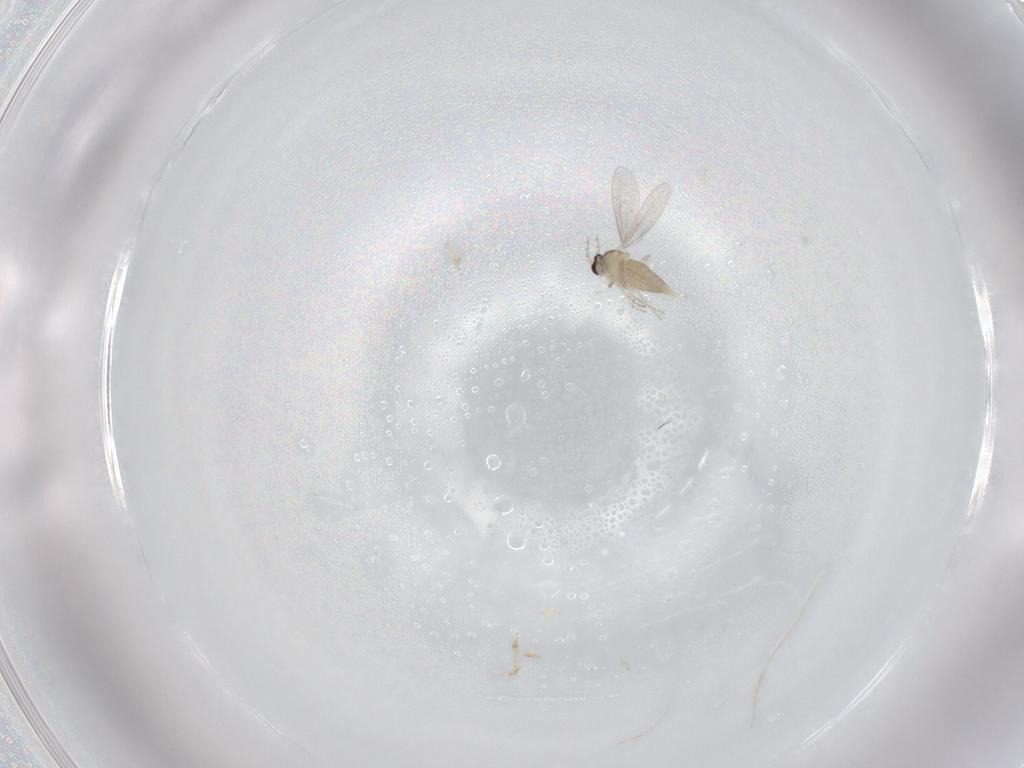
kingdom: Animalia
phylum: Arthropoda
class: Insecta
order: Diptera
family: Cecidomyiidae
